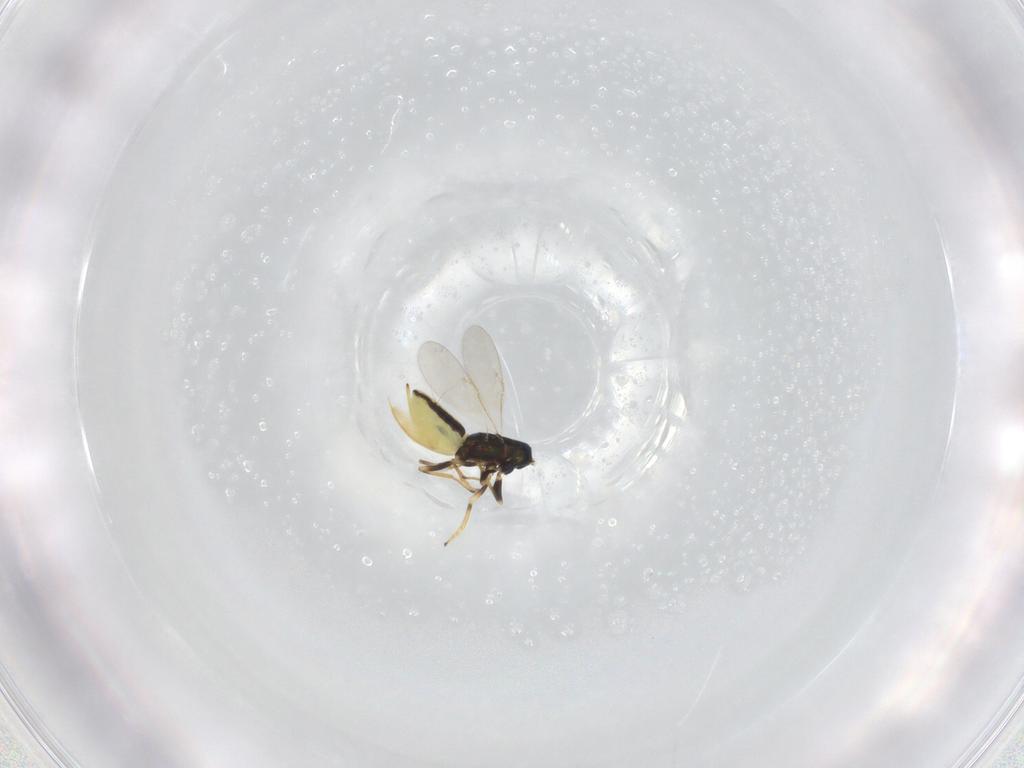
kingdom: Animalia
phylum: Arthropoda
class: Insecta
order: Hymenoptera
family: Encyrtidae
